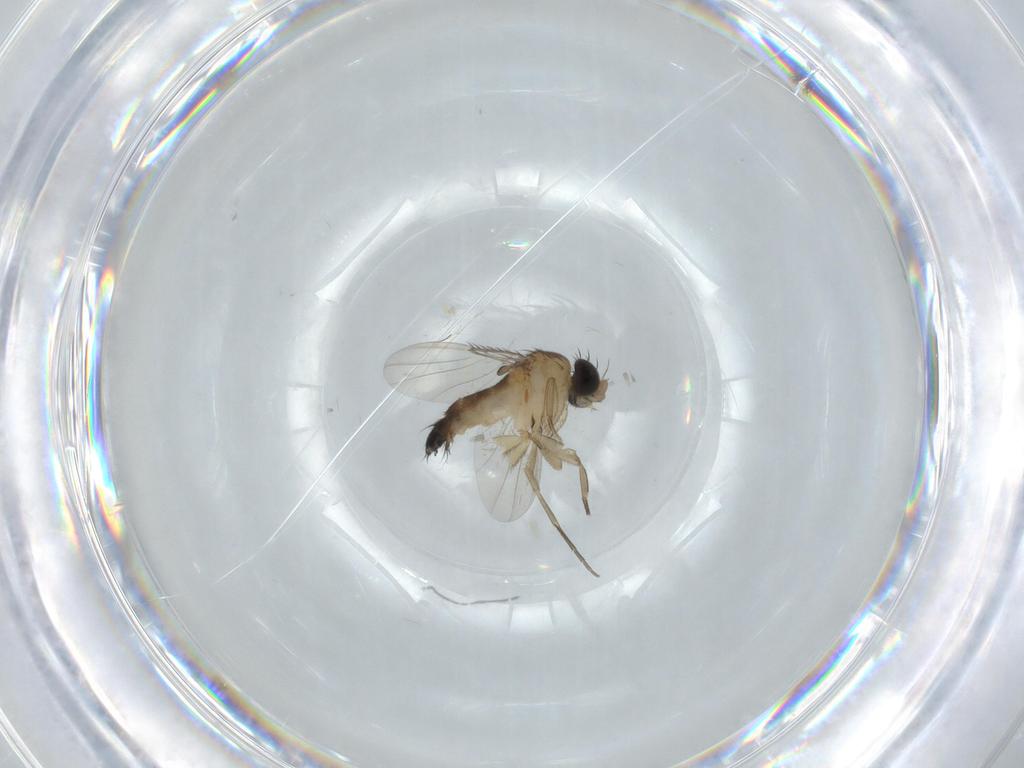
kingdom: Animalia
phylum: Arthropoda
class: Insecta
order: Diptera
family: Phoridae
